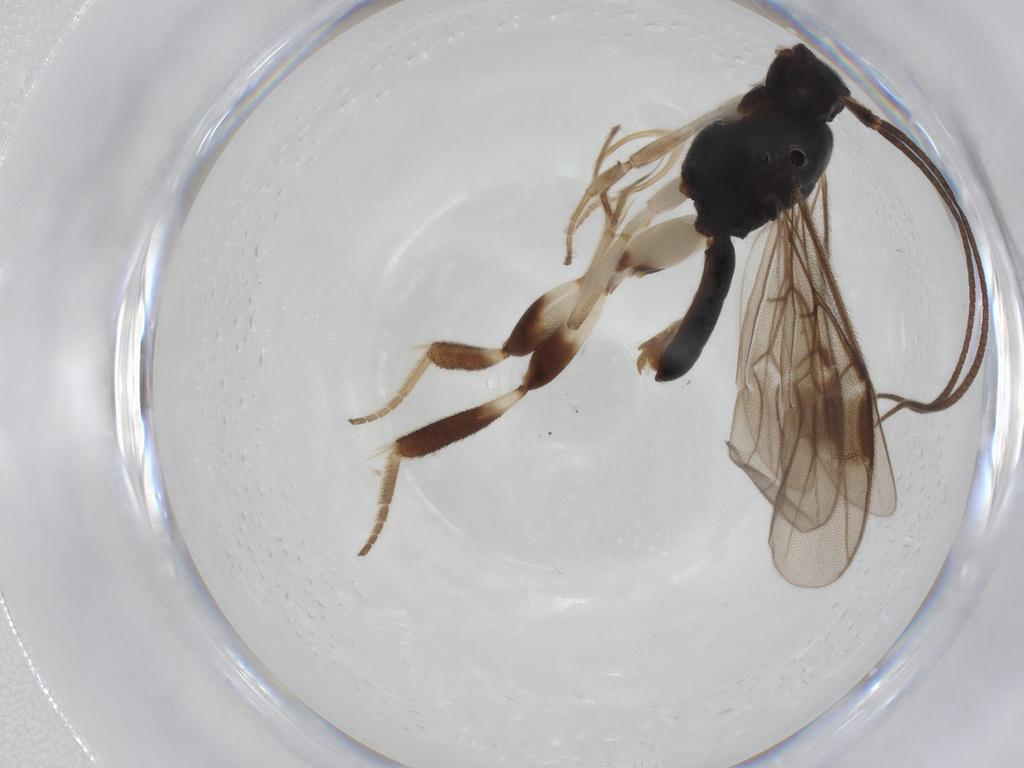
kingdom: Animalia
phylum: Arthropoda
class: Insecta
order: Hymenoptera
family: Braconidae
